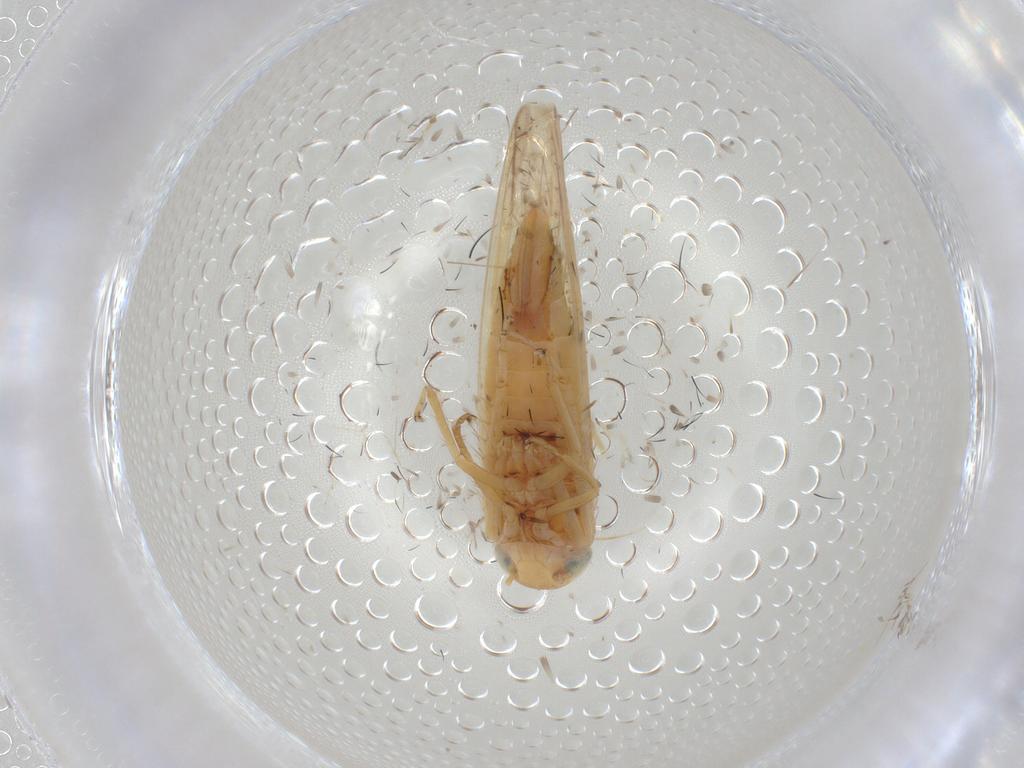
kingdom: Animalia
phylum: Arthropoda
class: Insecta
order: Hemiptera
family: Cicadellidae
